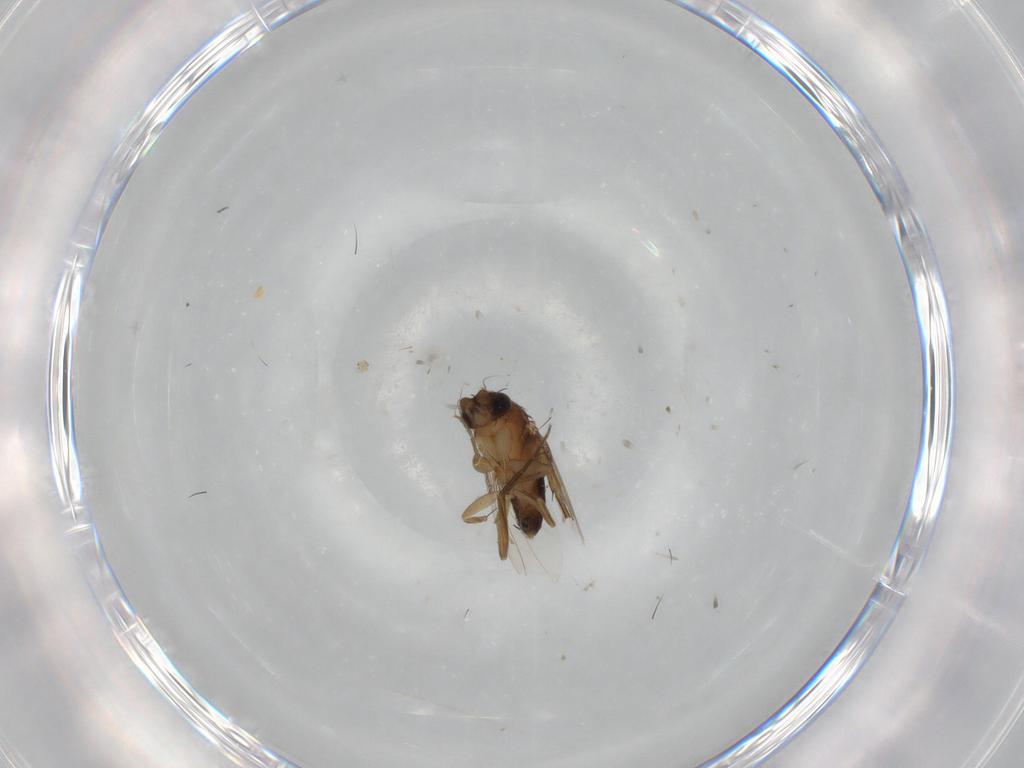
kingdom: Animalia
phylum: Arthropoda
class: Insecta
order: Diptera
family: Phoridae
